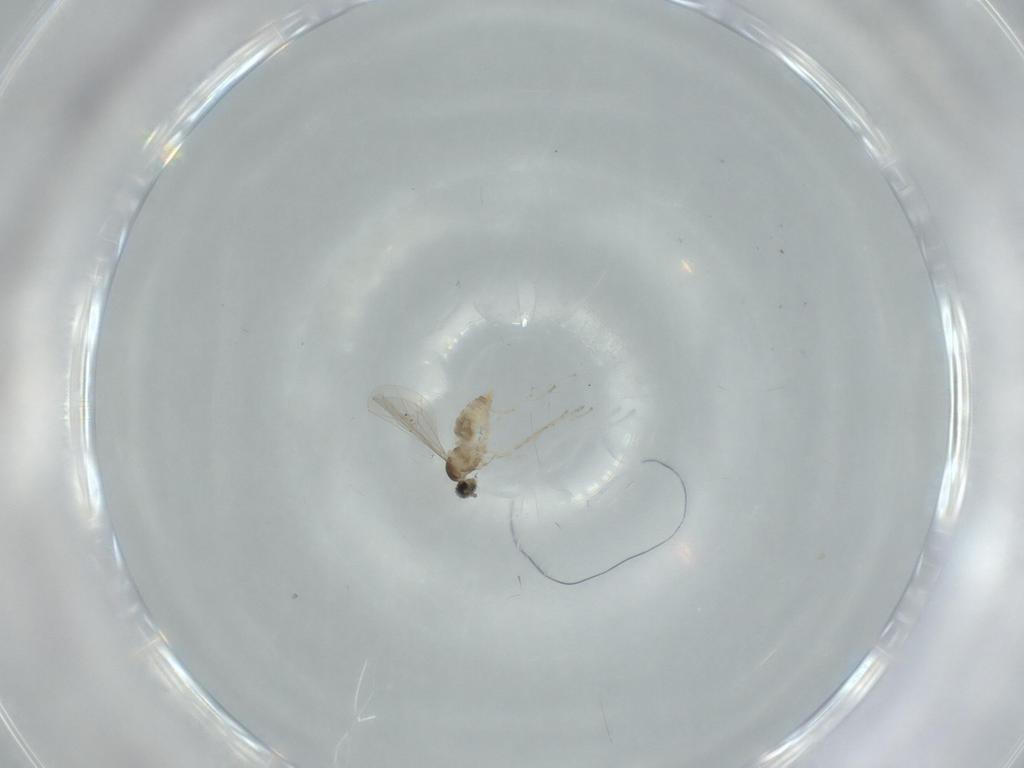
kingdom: Animalia
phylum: Arthropoda
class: Insecta
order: Diptera
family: Cecidomyiidae
